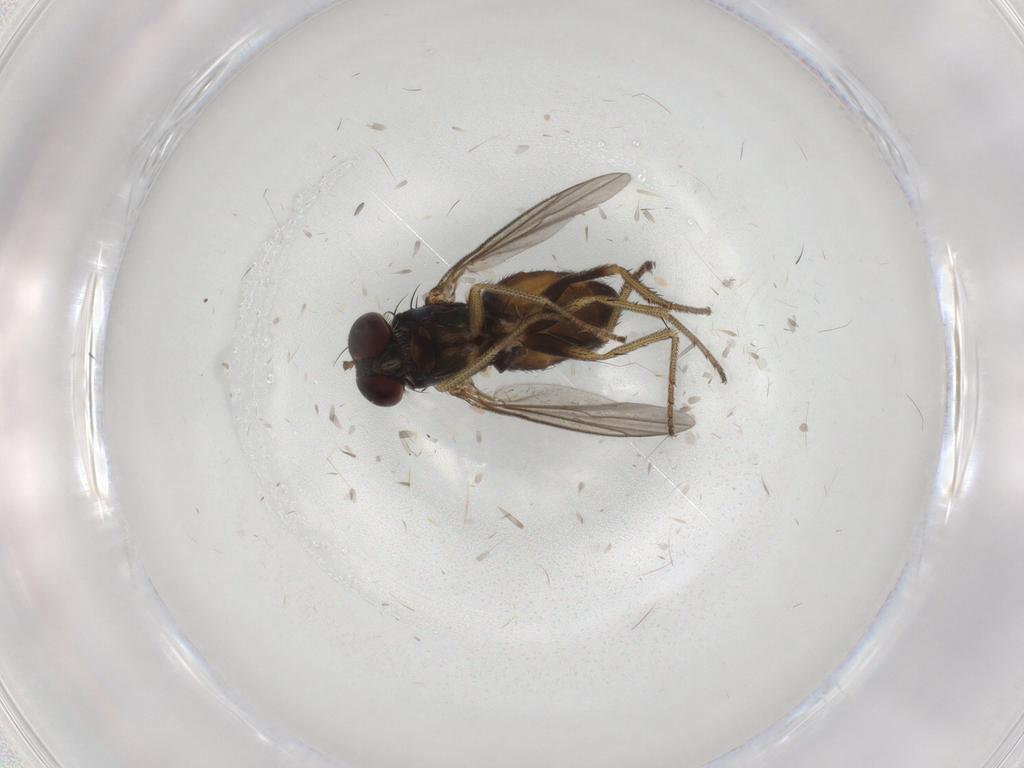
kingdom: Animalia
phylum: Arthropoda
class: Insecta
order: Diptera
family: Dolichopodidae
